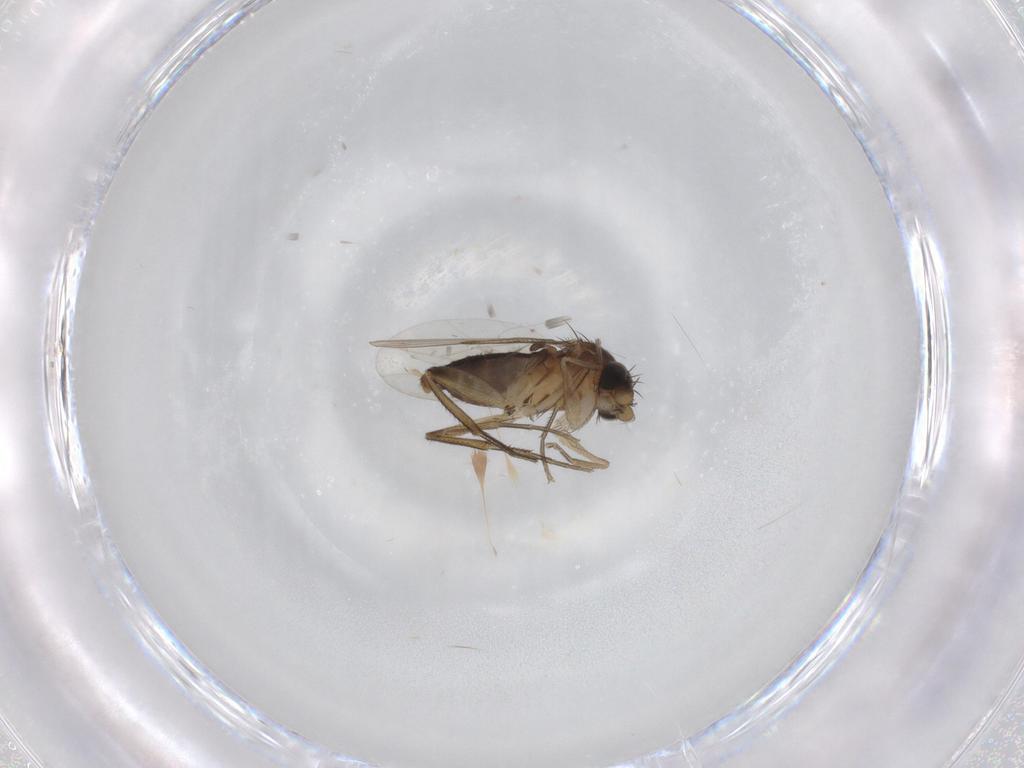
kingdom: Animalia
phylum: Arthropoda
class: Insecta
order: Diptera
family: Phoridae
